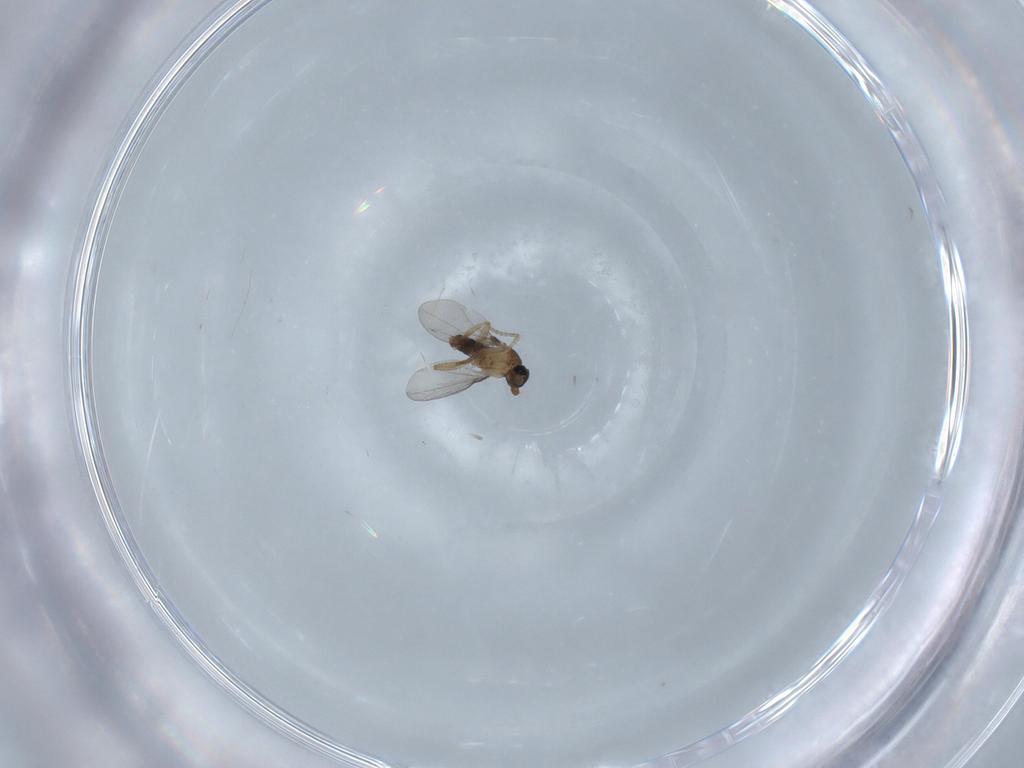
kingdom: Animalia
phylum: Arthropoda
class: Insecta
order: Diptera
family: Phoridae
